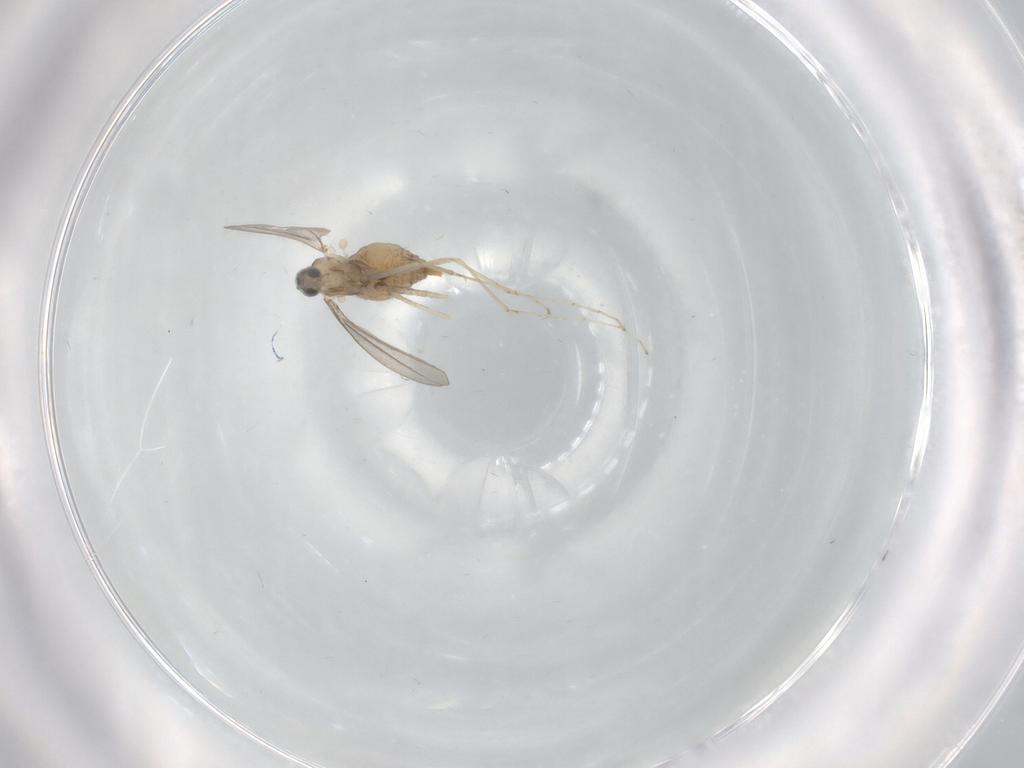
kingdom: Animalia
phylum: Arthropoda
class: Insecta
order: Diptera
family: Cecidomyiidae
